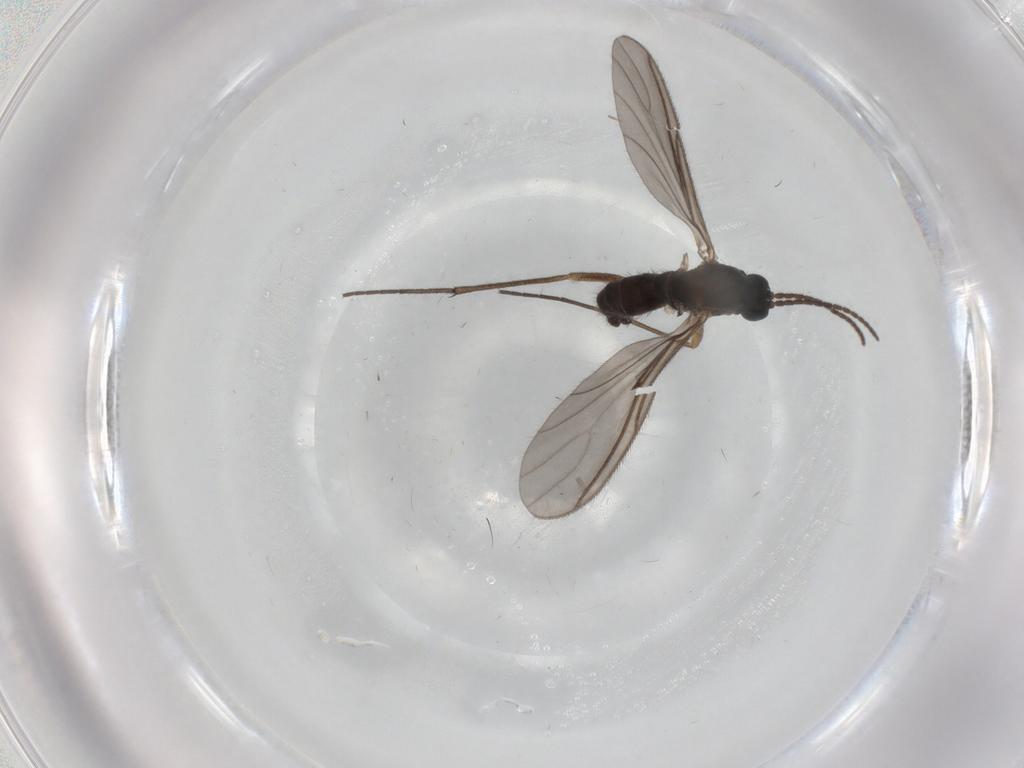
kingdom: Animalia
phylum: Arthropoda
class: Insecta
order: Diptera
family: Sciaridae
